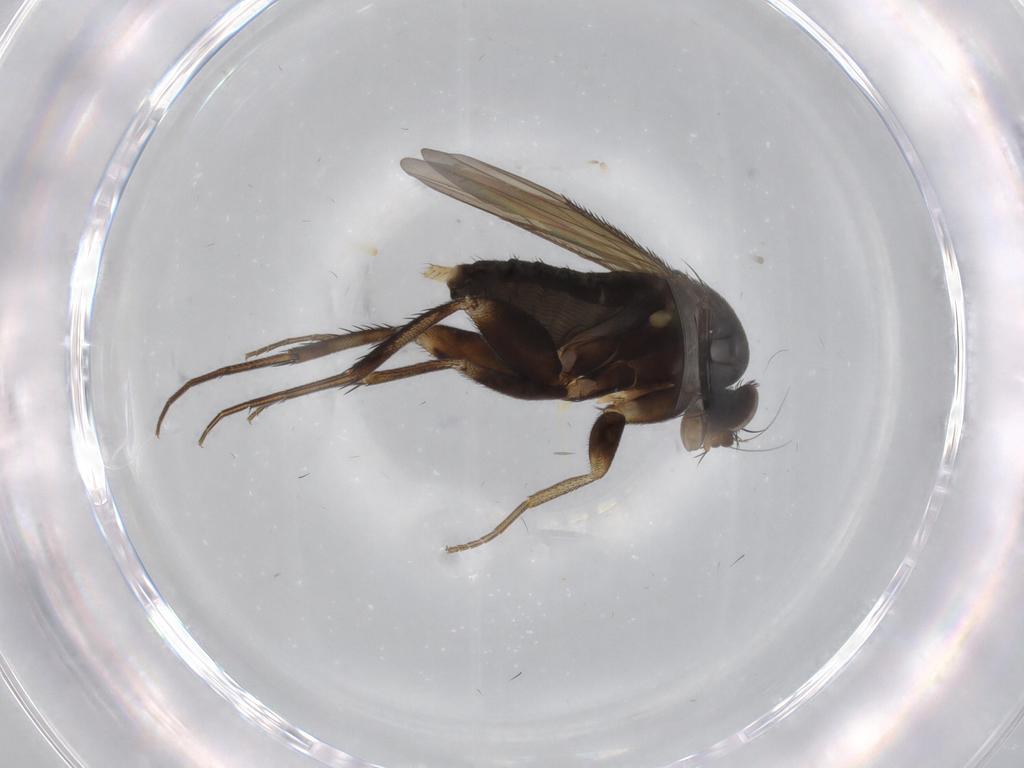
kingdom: Animalia
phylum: Arthropoda
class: Insecta
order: Diptera
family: Phoridae
